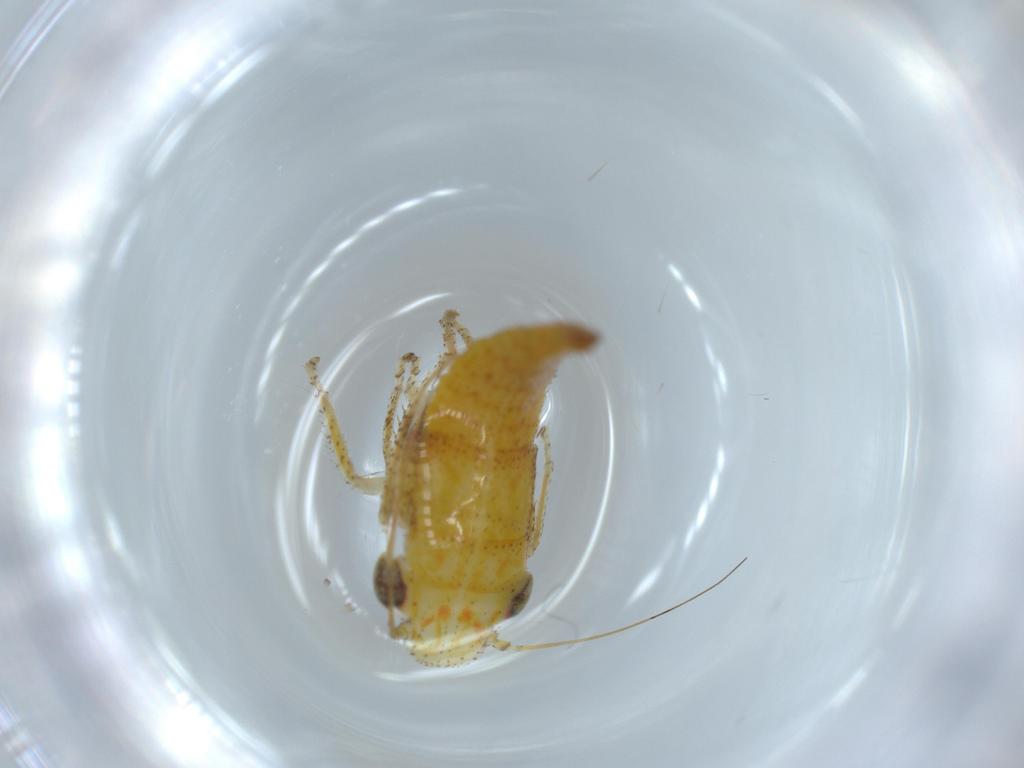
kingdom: Animalia
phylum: Arthropoda
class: Insecta
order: Hemiptera
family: Cicadellidae
